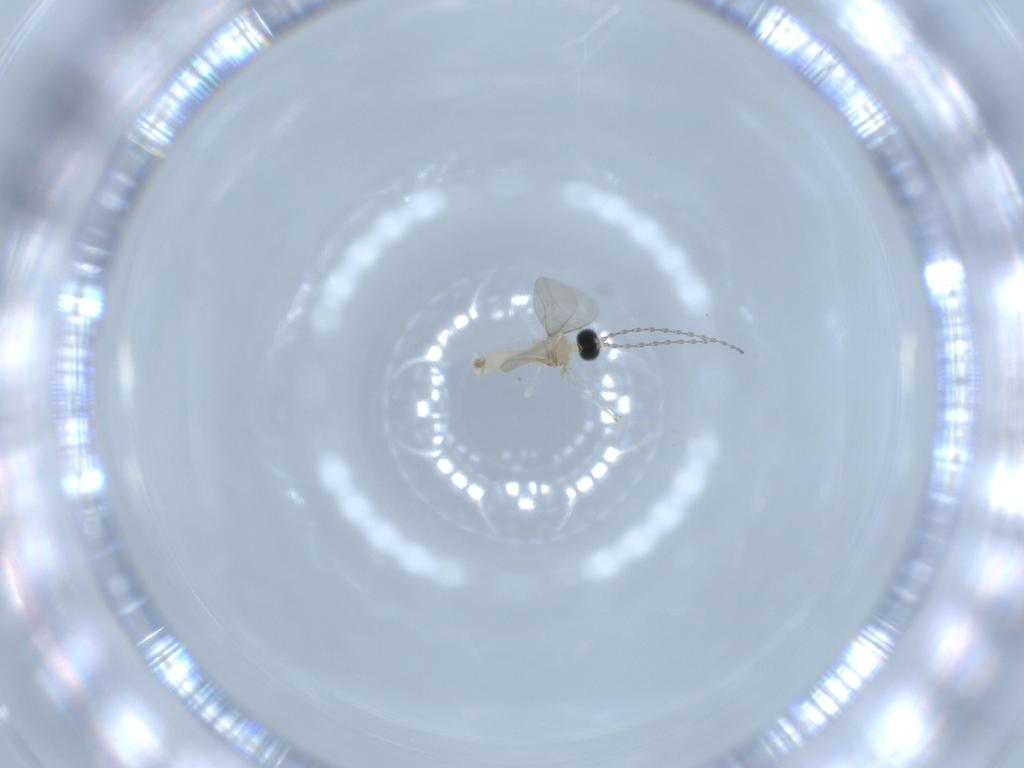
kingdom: Animalia
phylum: Arthropoda
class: Insecta
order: Diptera
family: Cecidomyiidae
